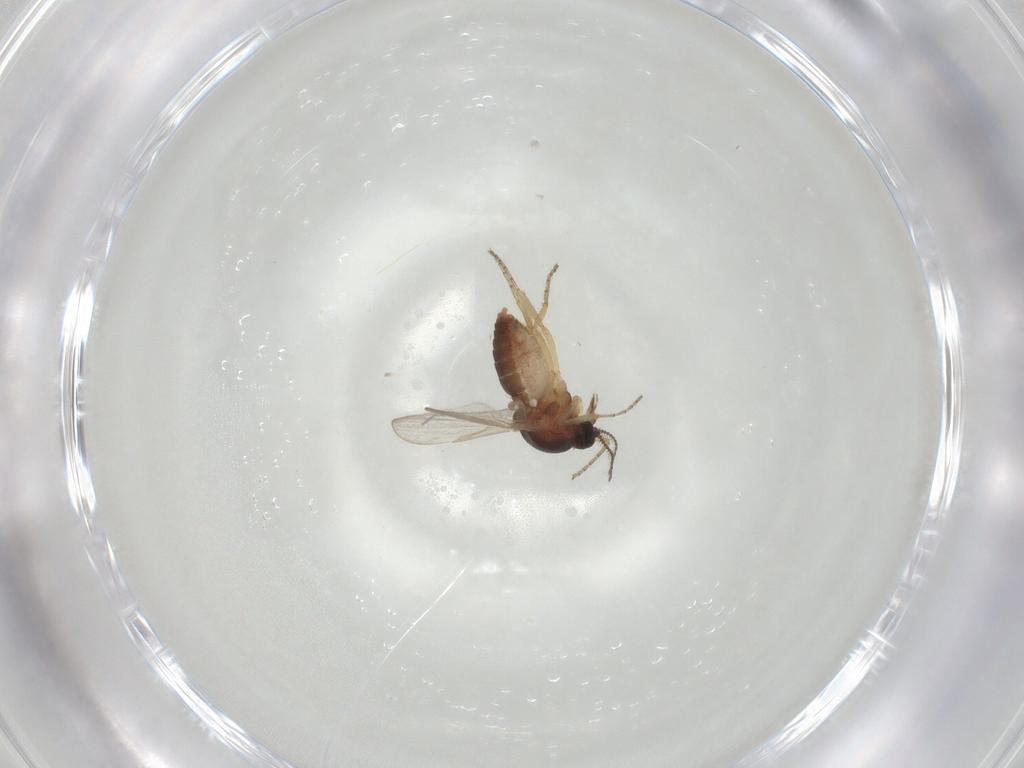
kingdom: Animalia
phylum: Arthropoda
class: Insecta
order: Diptera
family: Ceratopogonidae
